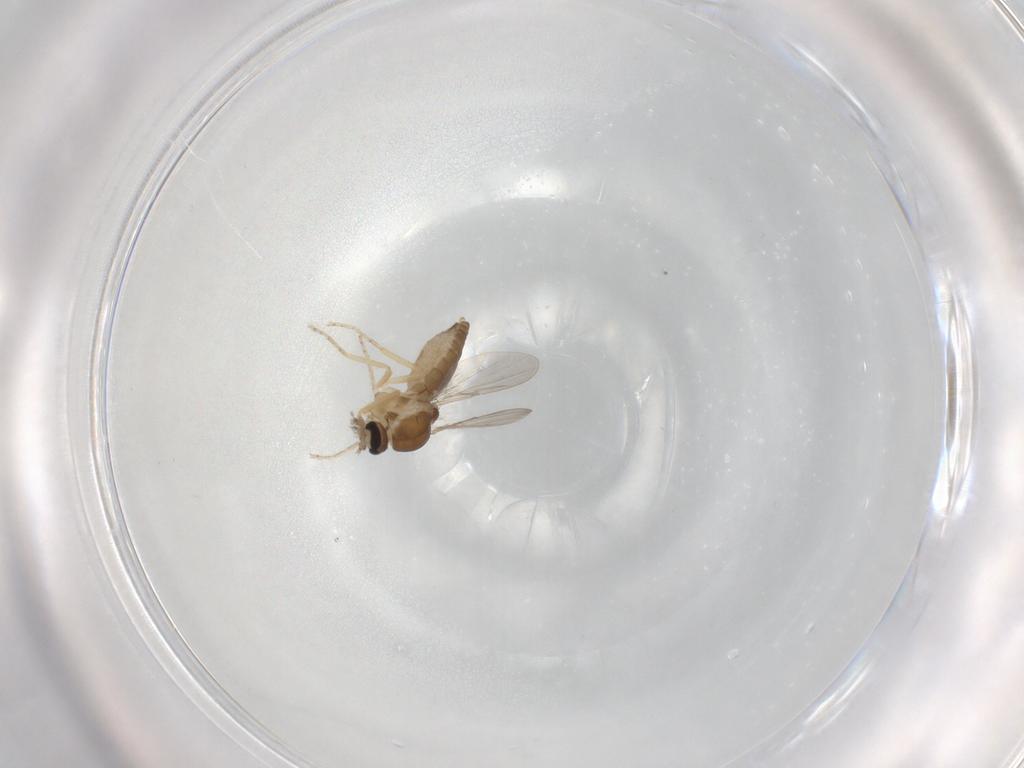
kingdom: Animalia
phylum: Arthropoda
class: Insecta
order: Diptera
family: Ceratopogonidae
